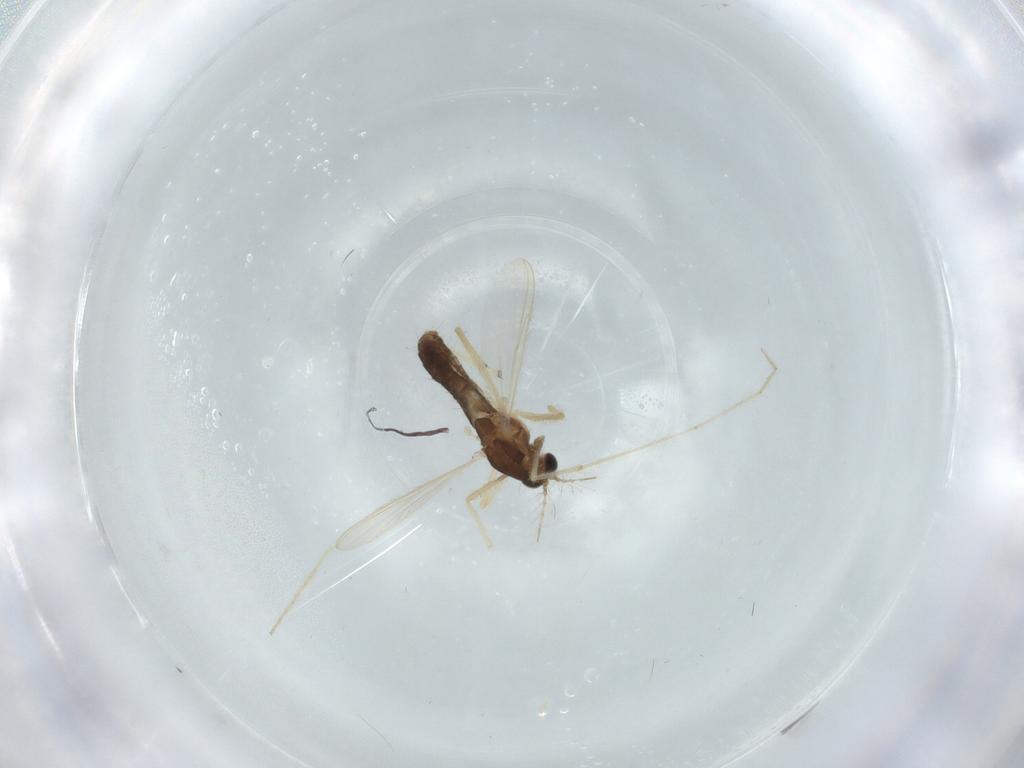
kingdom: Animalia
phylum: Arthropoda
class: Insecta
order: Diptera
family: Chironomidae
